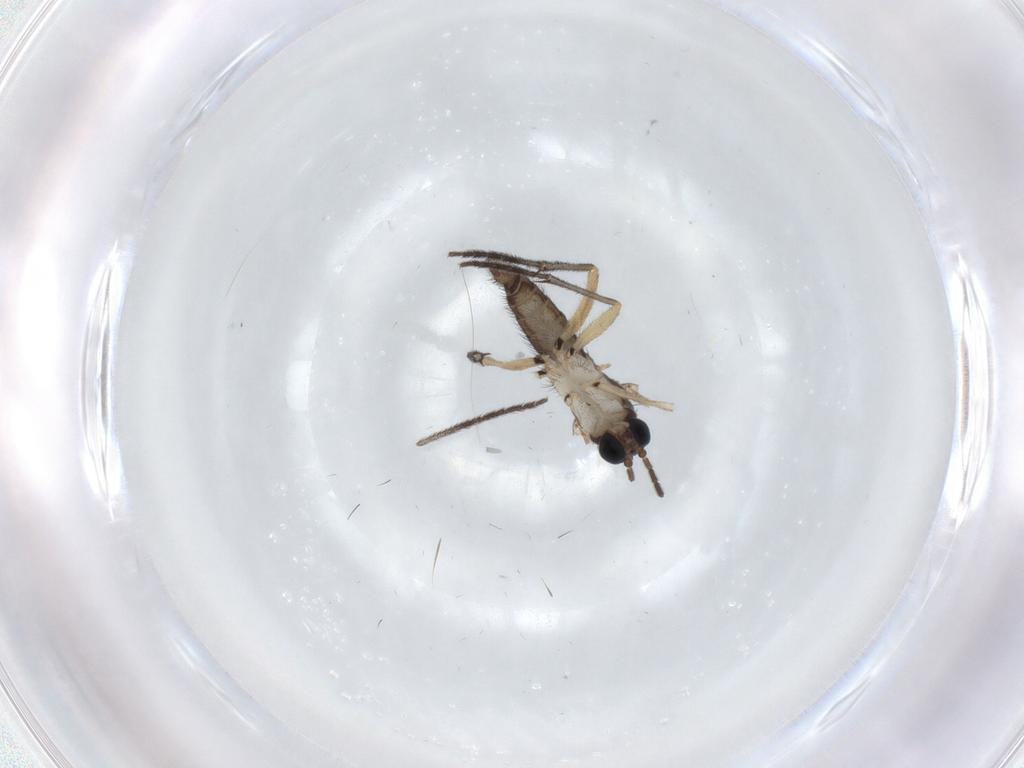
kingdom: Animalia
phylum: Arthropoda
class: Insecta
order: Diptera
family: Sciaridae
